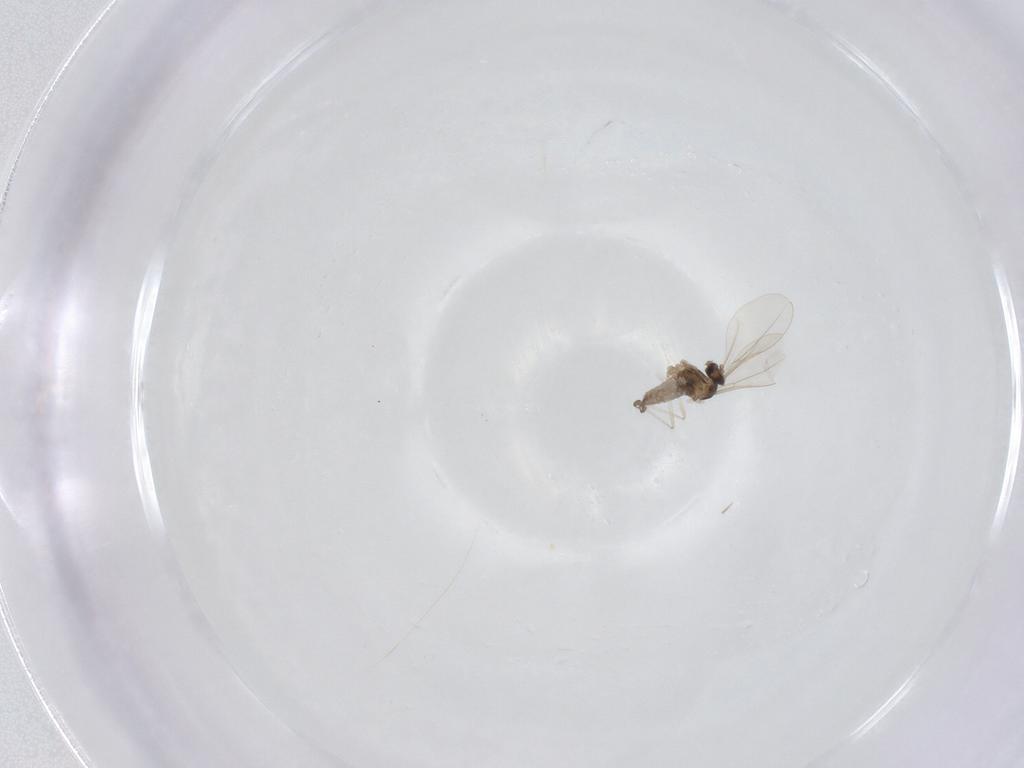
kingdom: Animalia
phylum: Arthropoda
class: Insecta
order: Diptera
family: Cecidomyiidae
